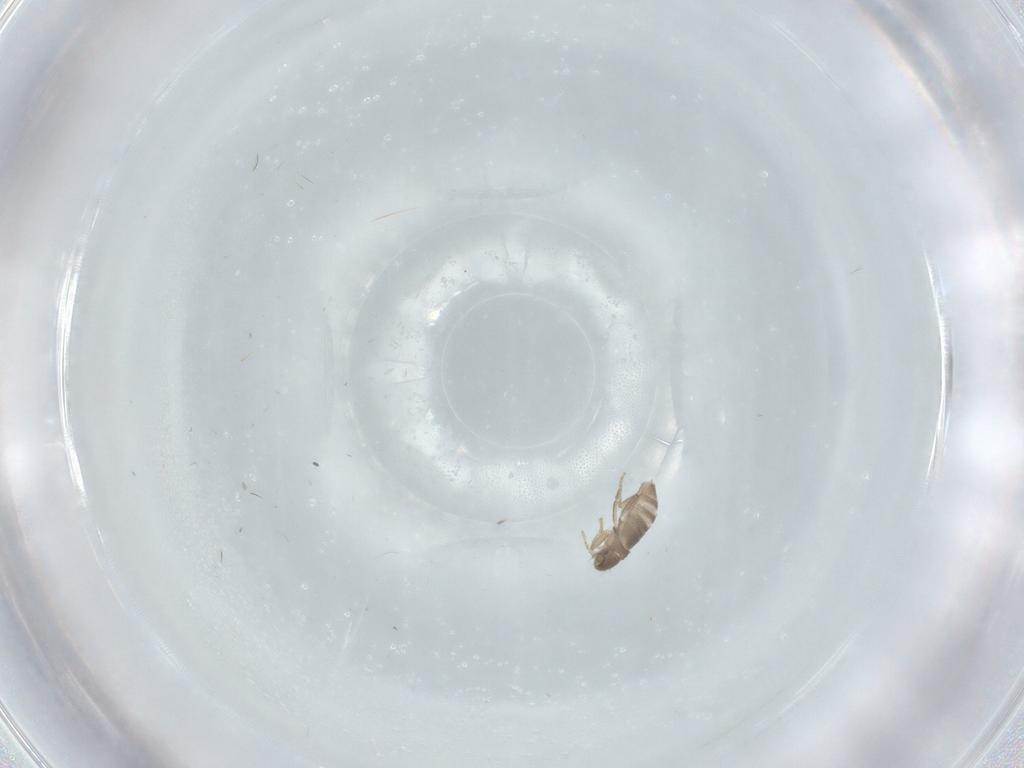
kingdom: Animalia
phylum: Arthropoda
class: Insecta
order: Diptera
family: Cecidomyiidae
